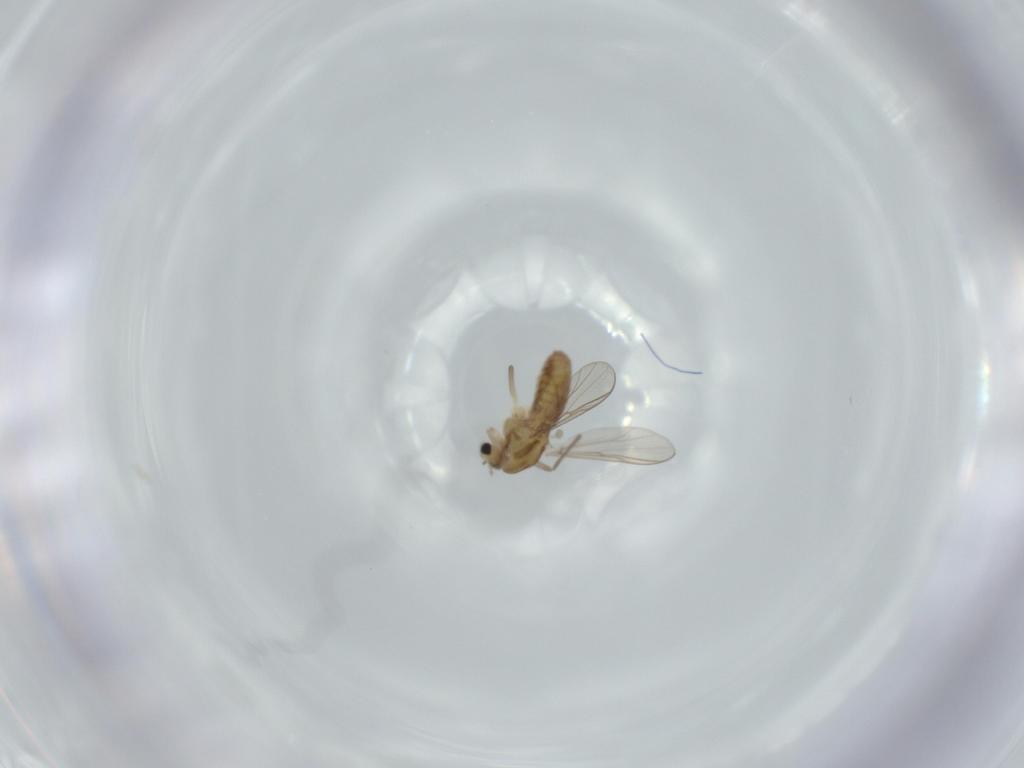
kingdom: Animalia
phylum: Arthropoda
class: Insecta
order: Diptera
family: Chironomidae
